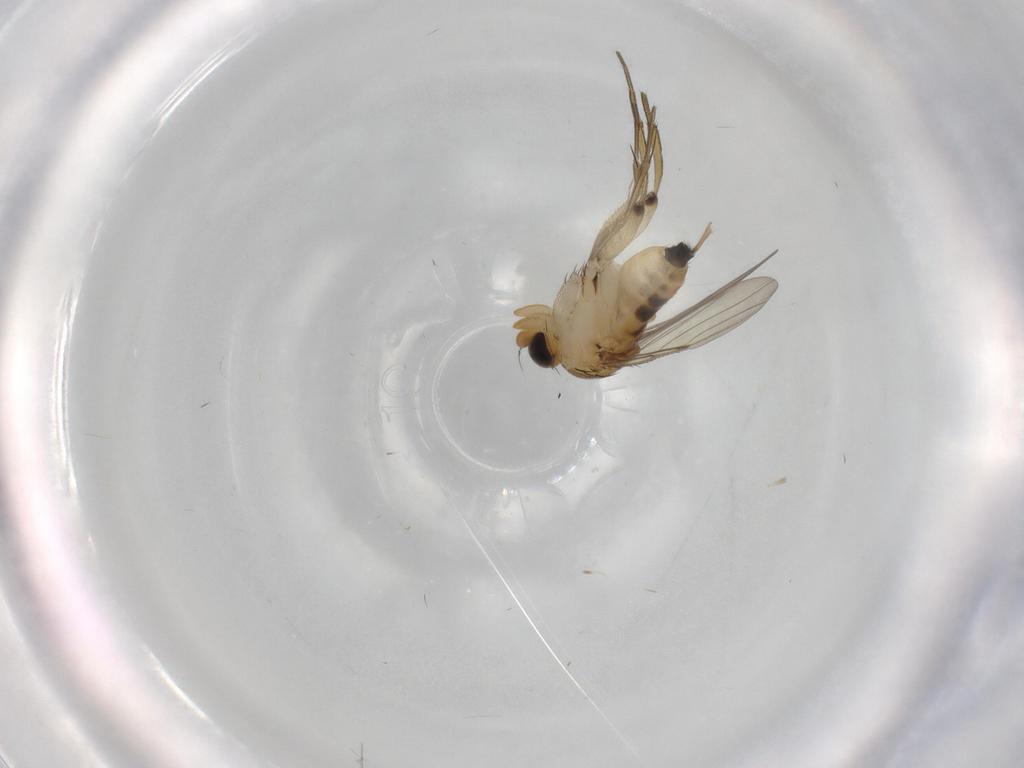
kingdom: Animalia
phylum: Arthropoda
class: Insecta
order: Diptera
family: Phoridae
